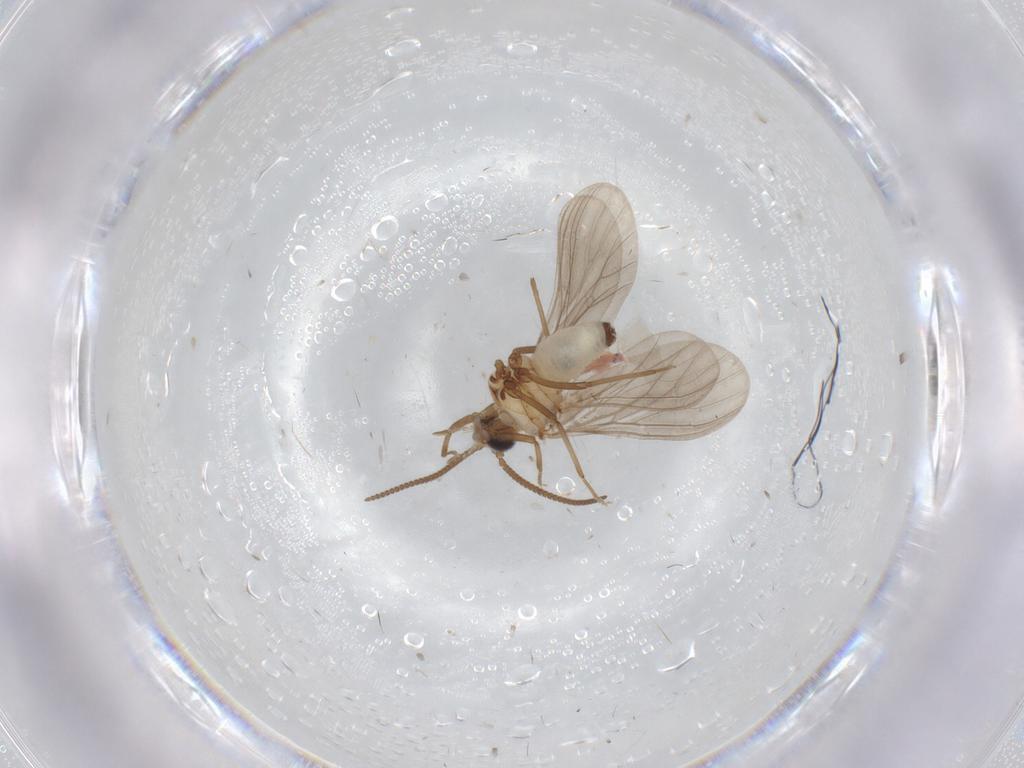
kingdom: Animalia
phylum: Arthropoda
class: Insecta
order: Neuroptera
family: Coniopterygidae
